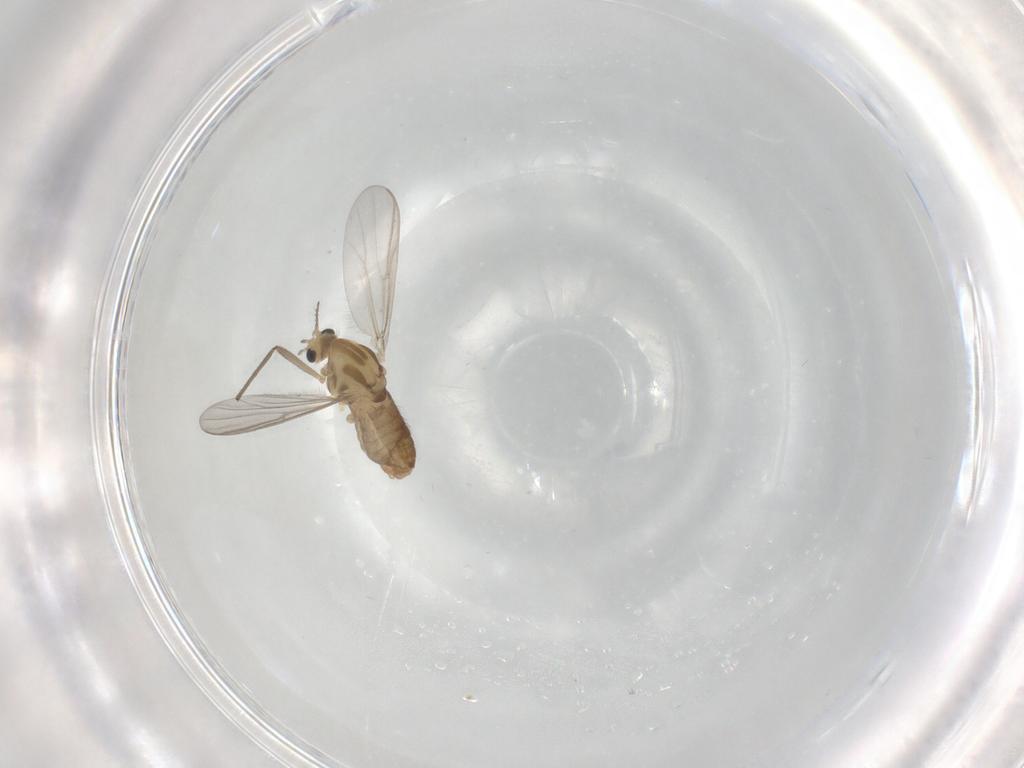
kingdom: Animalia
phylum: Arthropoda
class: Insecta
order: Diptera
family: Chironomidae
